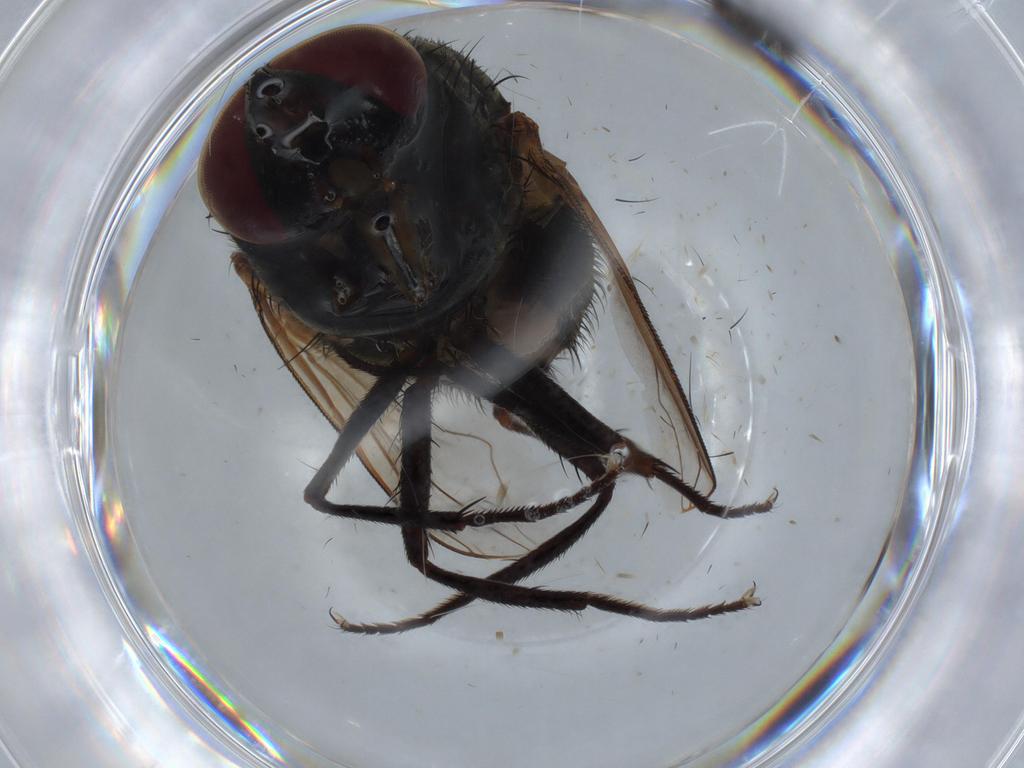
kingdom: Animalia
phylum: Arthropoda
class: Insecta
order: Diptera
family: Scatopsidae
